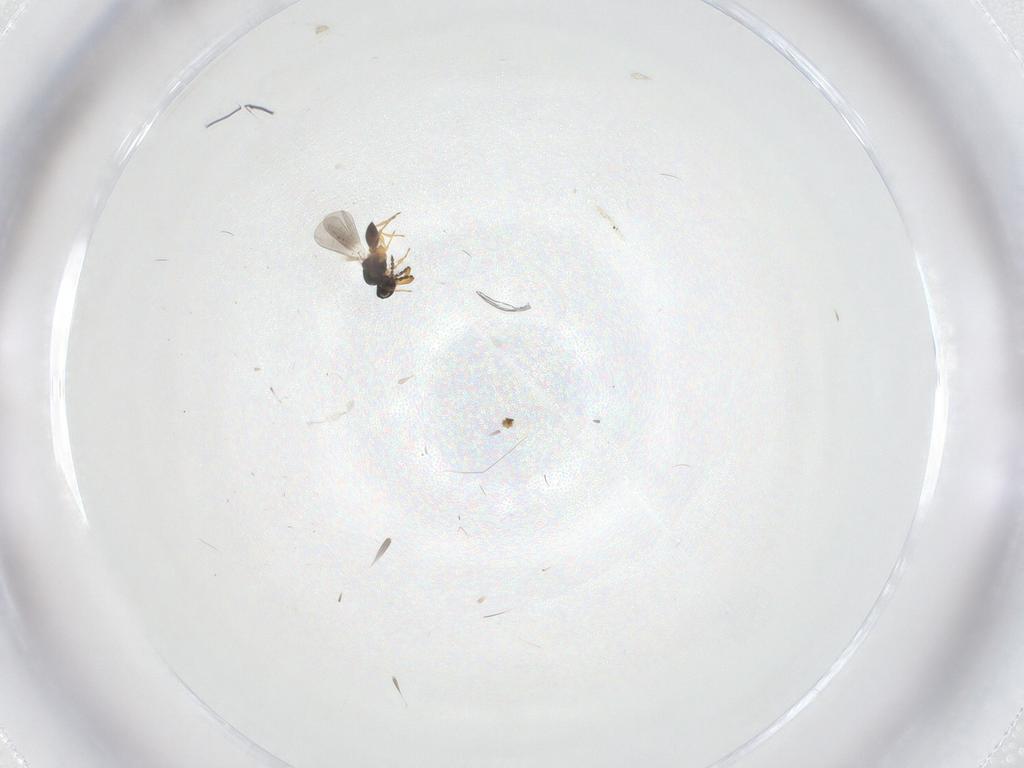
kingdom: Animalia
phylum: Arthropoda
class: Insecta
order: Hymenoptera
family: Platygastridae
